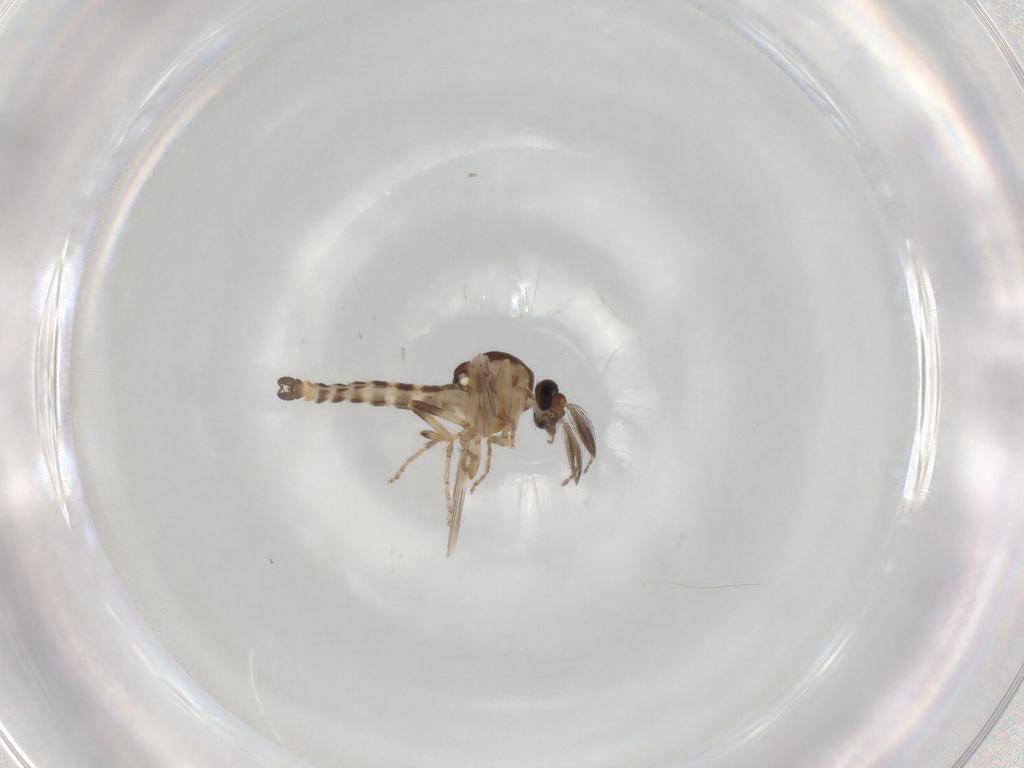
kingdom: Animalia
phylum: Arthropoda
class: Insecta
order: Diptera
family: Ceratopogonidae
